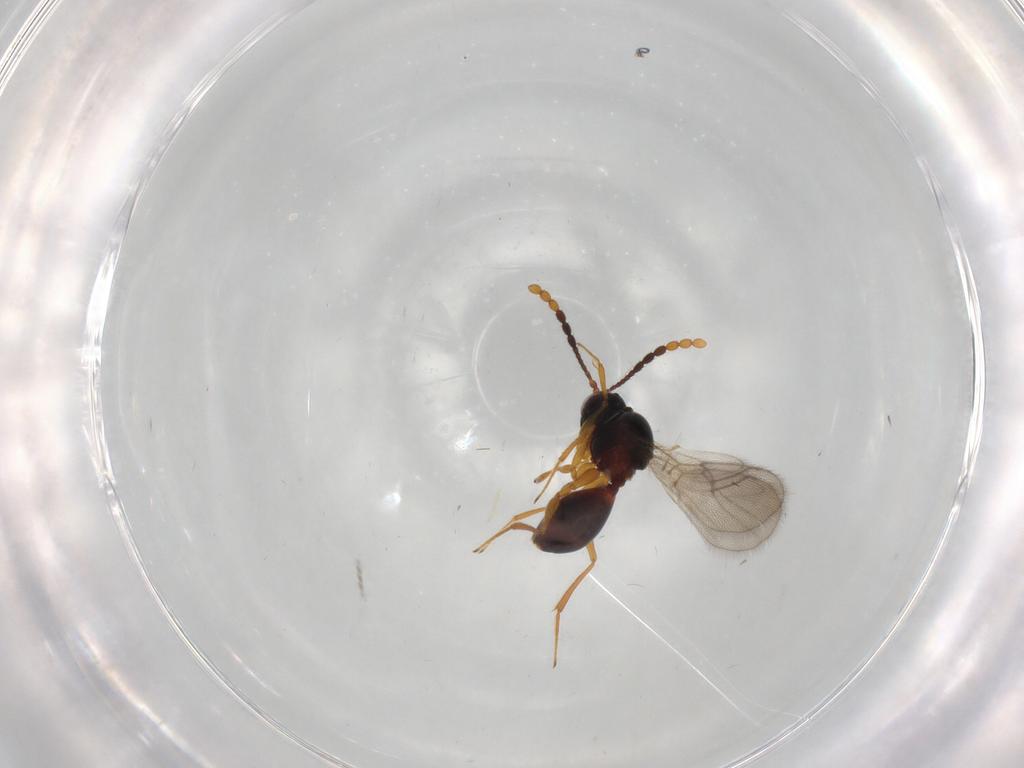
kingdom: Animalia
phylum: Arthropoda
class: Insecta
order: Hymenoptera
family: Figitidae
